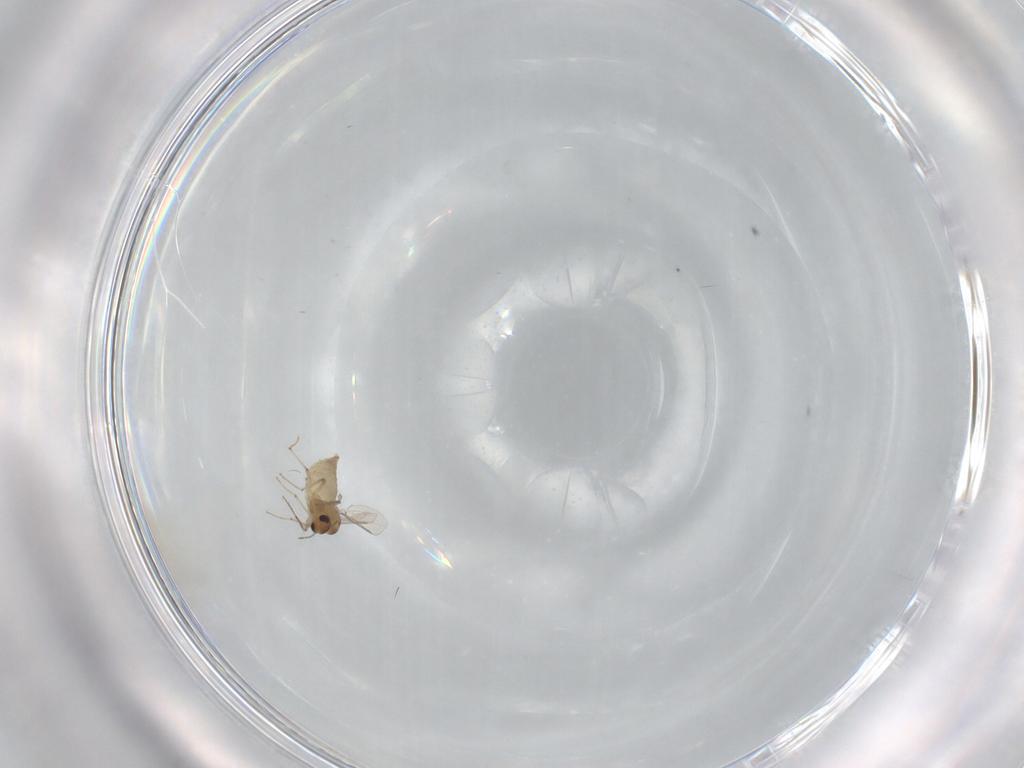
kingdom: Animalia
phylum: Arthropoda
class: Insecta
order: Diptera
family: Chironomidae
